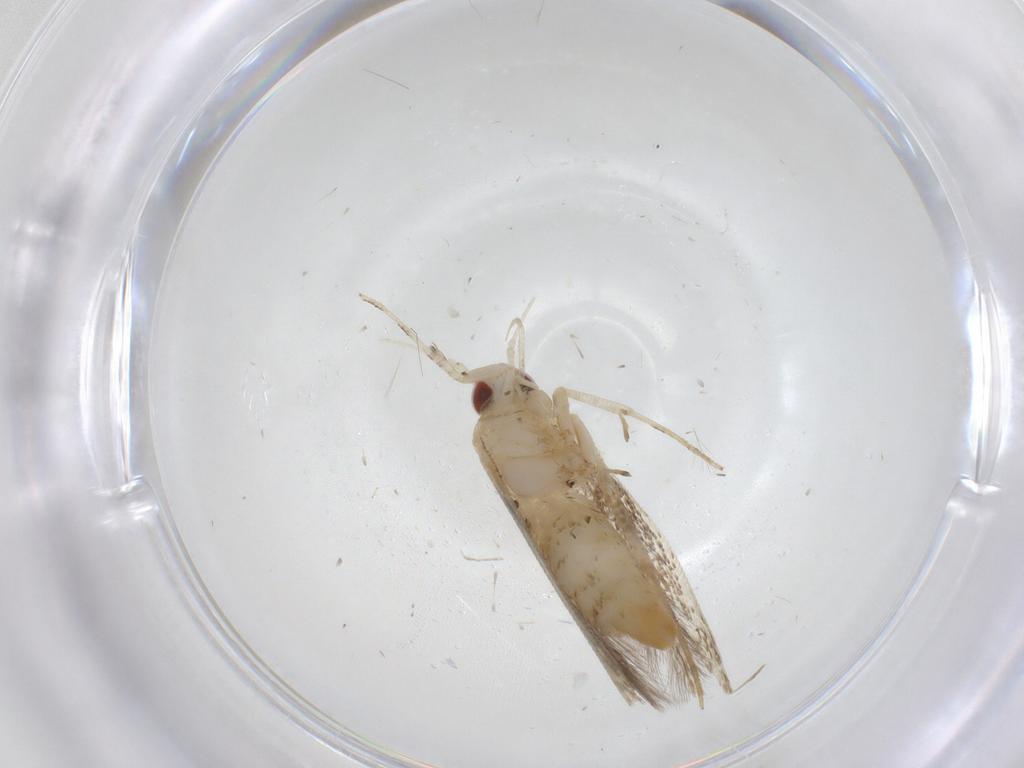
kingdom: Animalia
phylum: Arthropoda
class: Insecta
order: Lepidoptera
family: Cosmopterigidae
